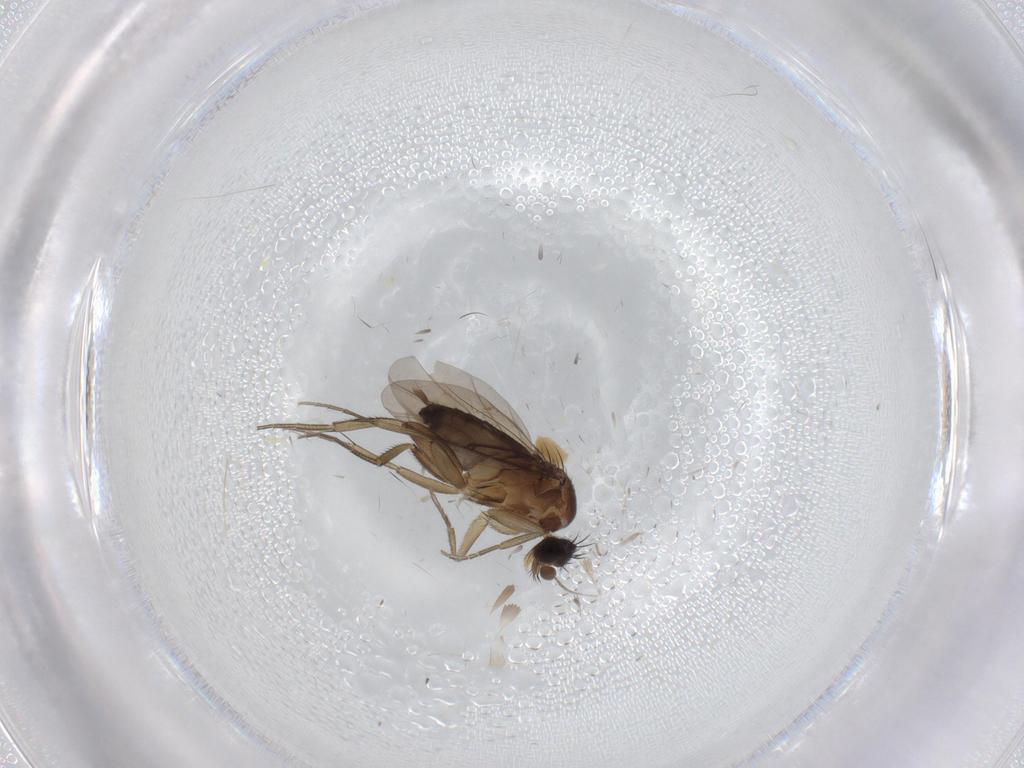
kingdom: Animalia
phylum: Arthropoda
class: Insecta
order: Diptera
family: Phoridae
